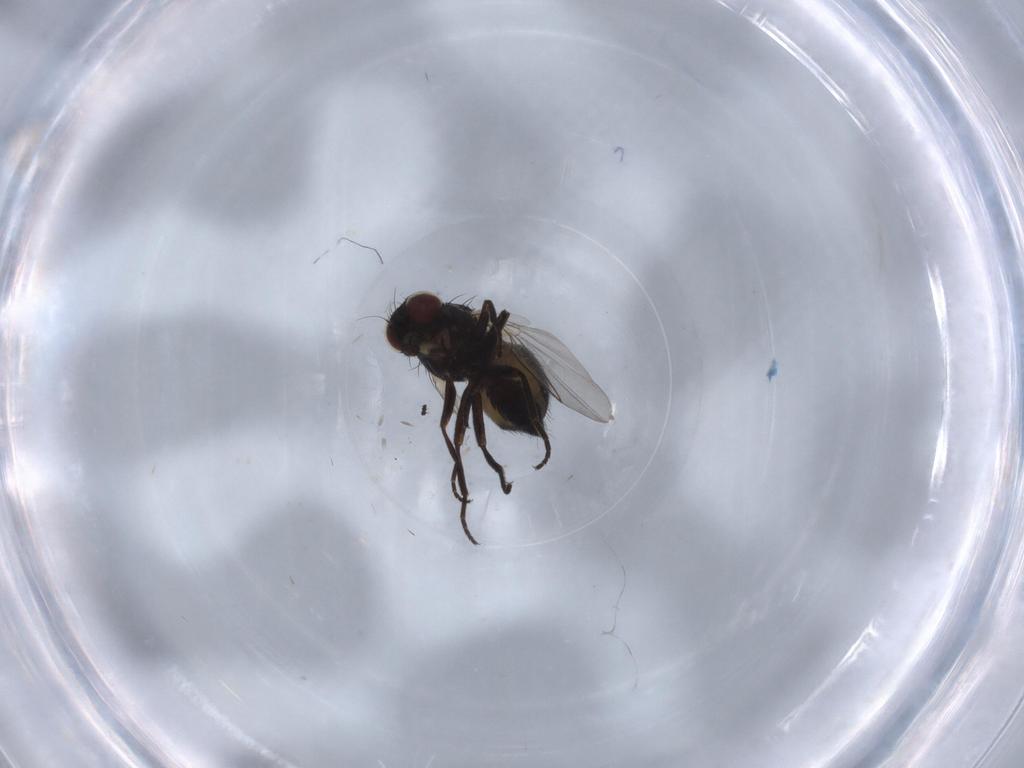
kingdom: Animalia
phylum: Arthropoda
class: Insecta
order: Diptera
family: Agromyzidae
